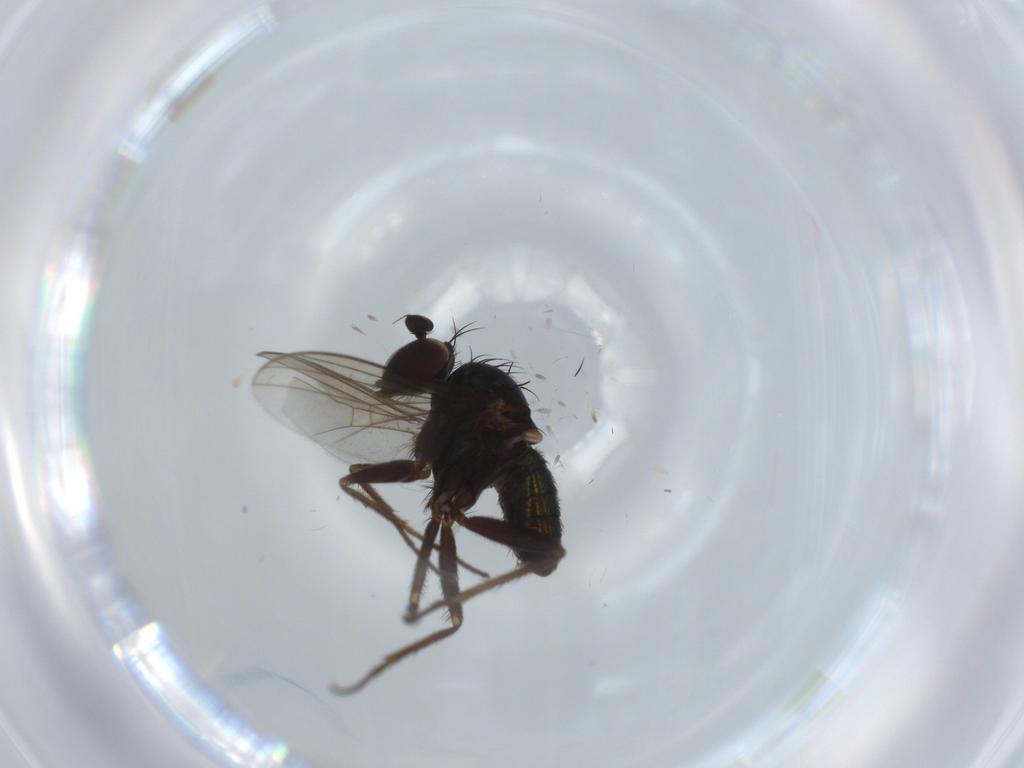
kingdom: Animalia
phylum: Arthropoda
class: Insecta
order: Diptera
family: Dolichopodidae
